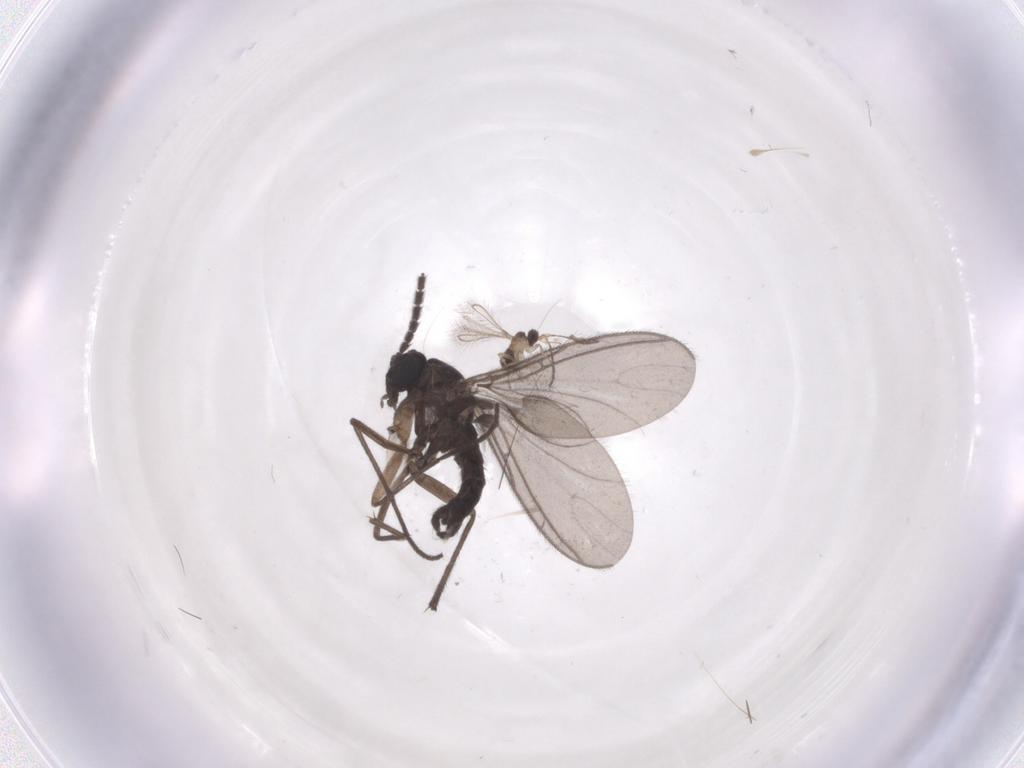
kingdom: Animalia
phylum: Arthropoda
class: Insecta
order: Diptera
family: Sciaridae
